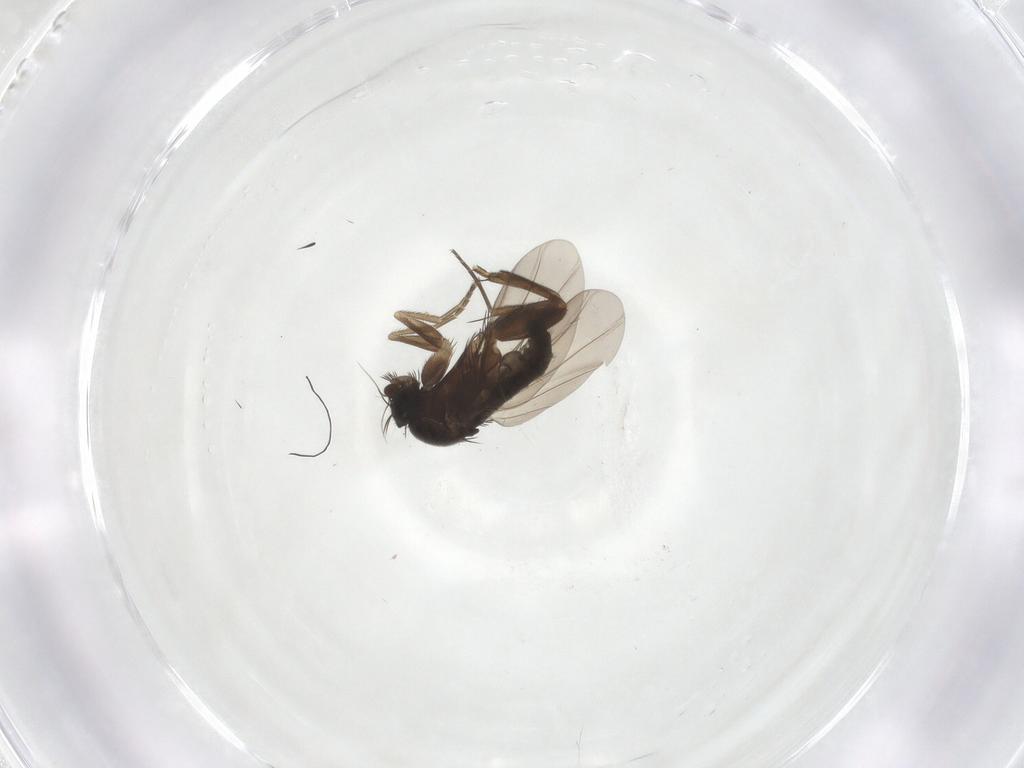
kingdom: Animalia
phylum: Arthropoda
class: Insecta
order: Diptera
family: Phoridae
